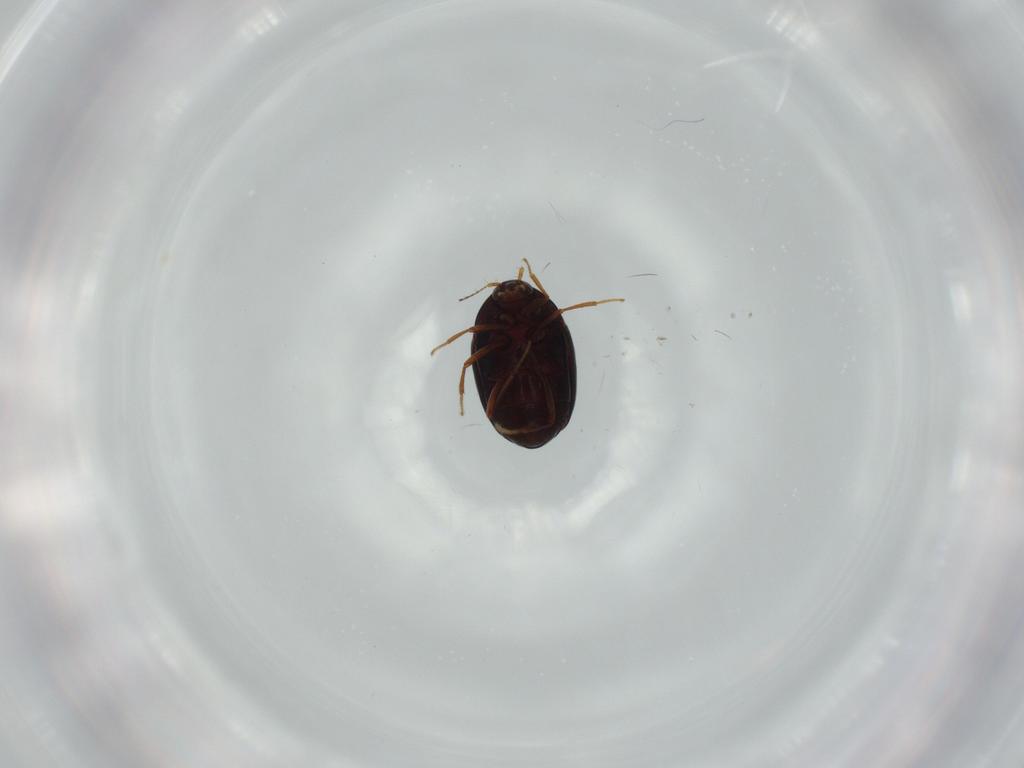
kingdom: Animalia
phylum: Arthropoda
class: Insecta
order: Coleoptera
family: Staphylinidae
